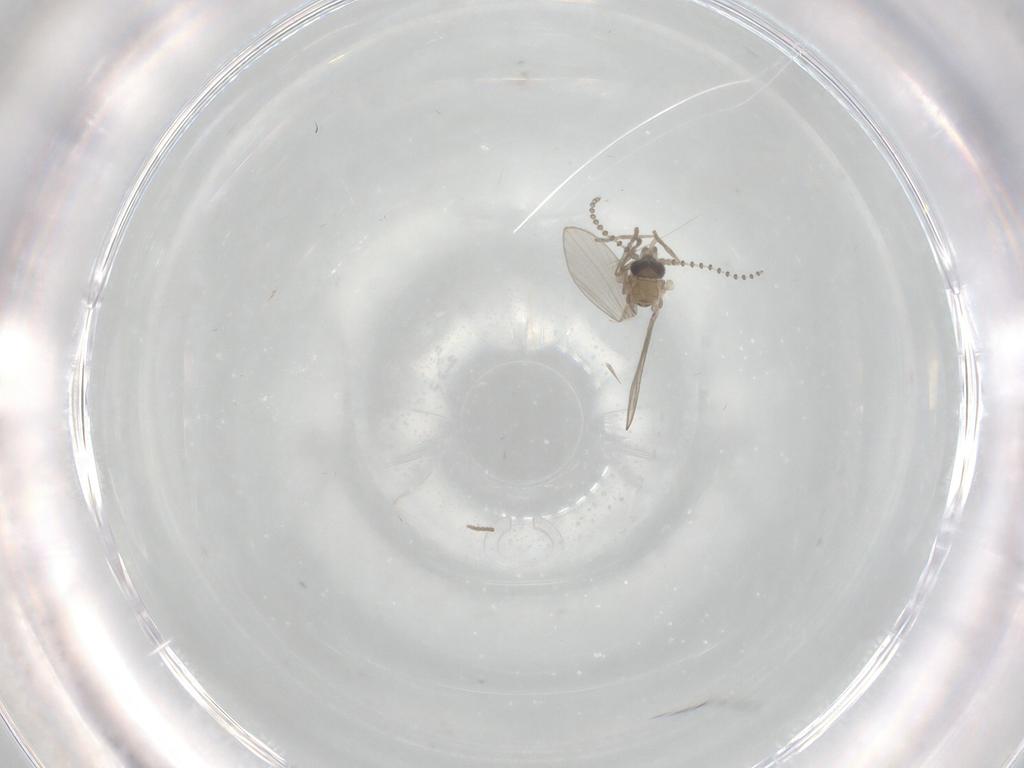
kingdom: Animalia
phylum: Arthropoda
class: Insecta
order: Diptera
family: Psychodidae
